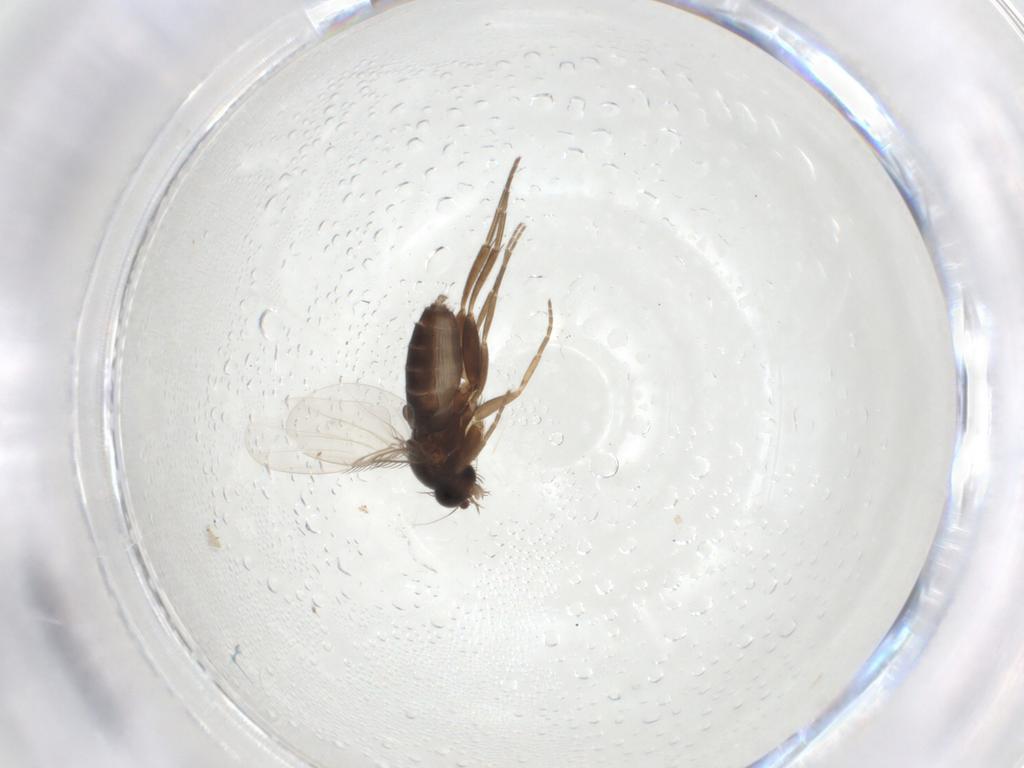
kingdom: Animalia
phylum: Arthropoda
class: Insecta
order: Diptera
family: Phoridae
